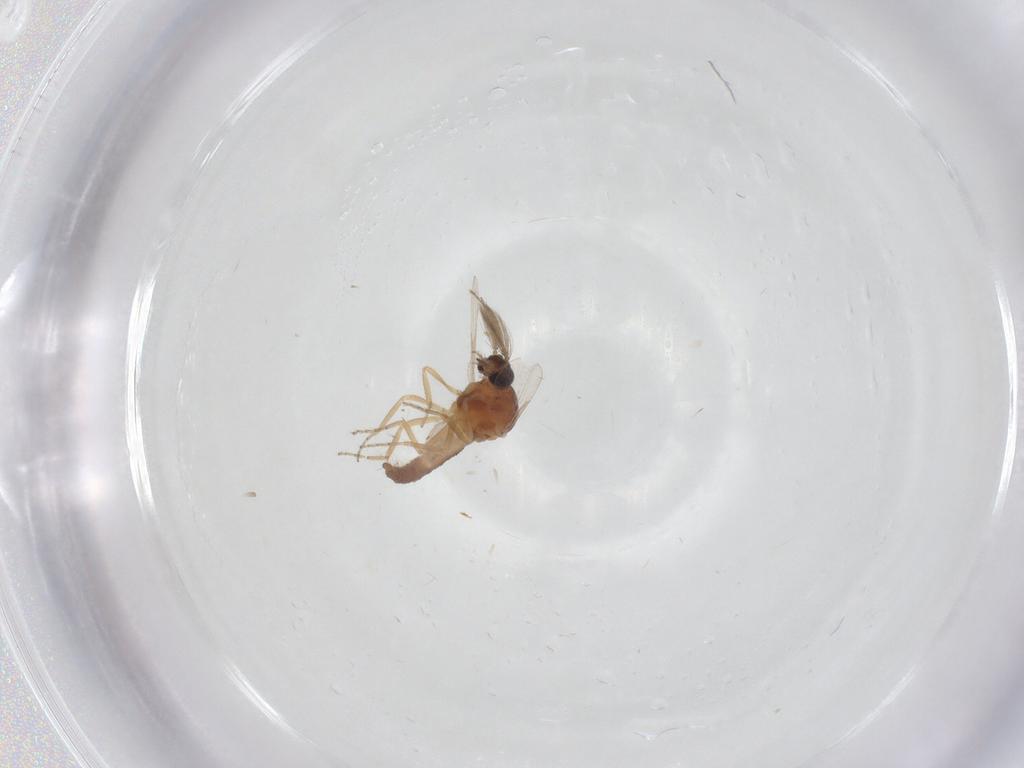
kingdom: Animalia
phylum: Arthropoda
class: Insecta
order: Diptera
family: Ceratopogonidae
